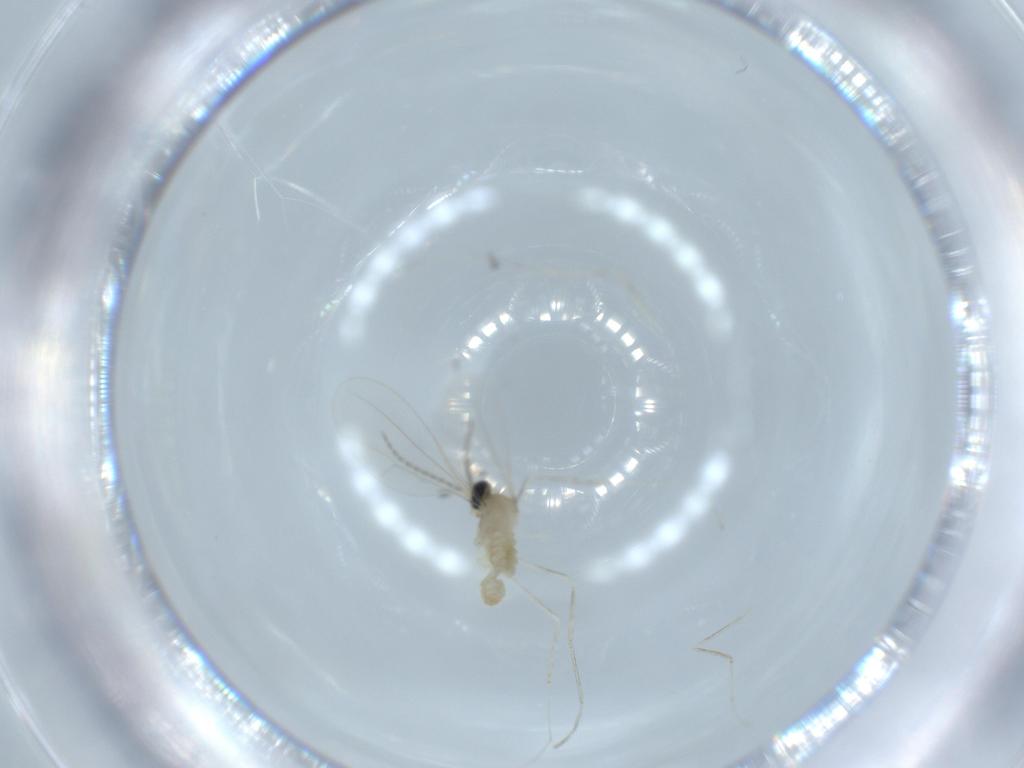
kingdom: Animalia
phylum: Arthropoda
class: Insecta
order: Diptera
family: Cecidomyiidae
